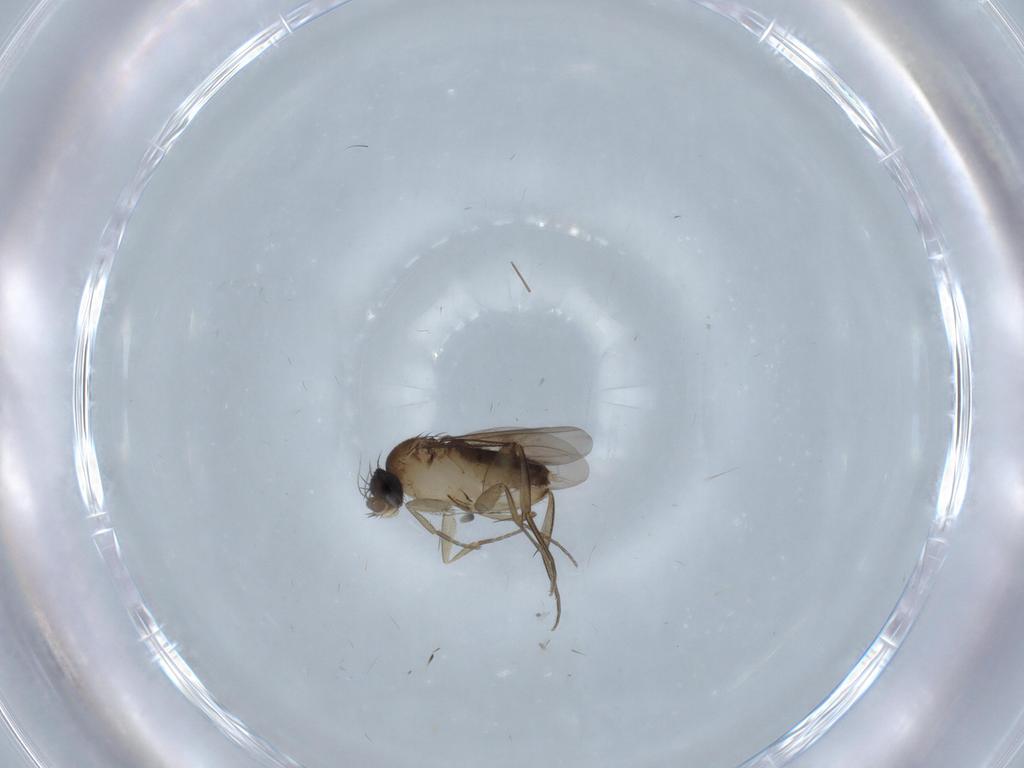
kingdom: Animalia
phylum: Arthropoda
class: Insecta
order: Diptera
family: Phoridae
